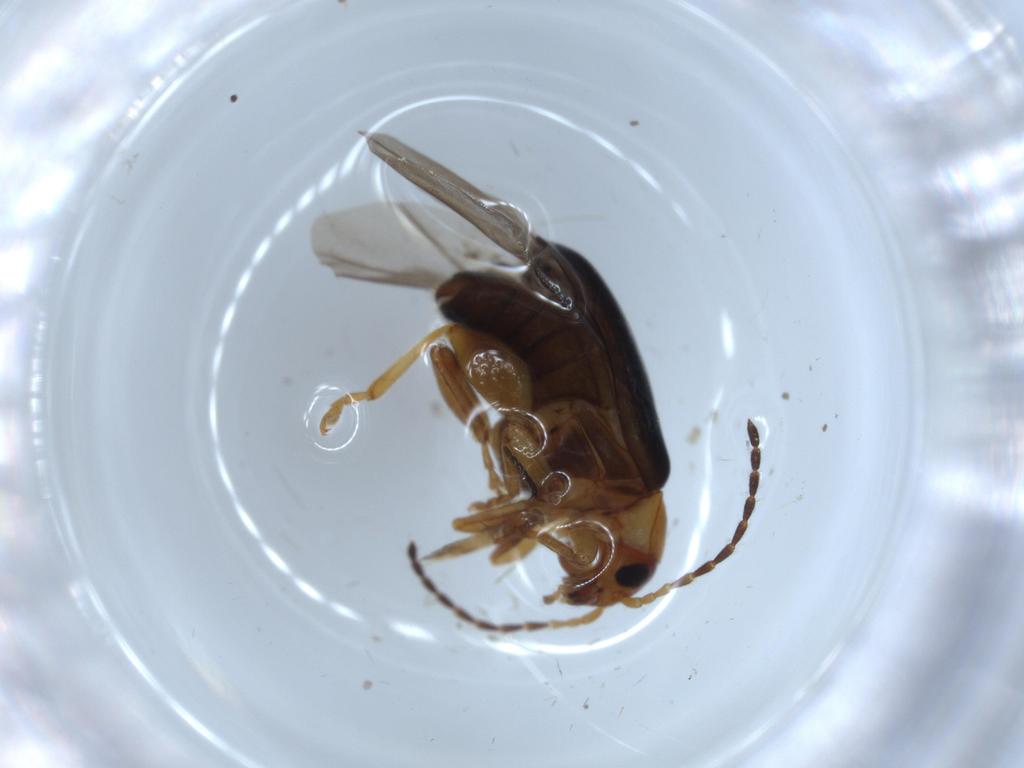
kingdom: Animalia
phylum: Arthropoda
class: Insecta
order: Coleoptera
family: Chrysomelidae
